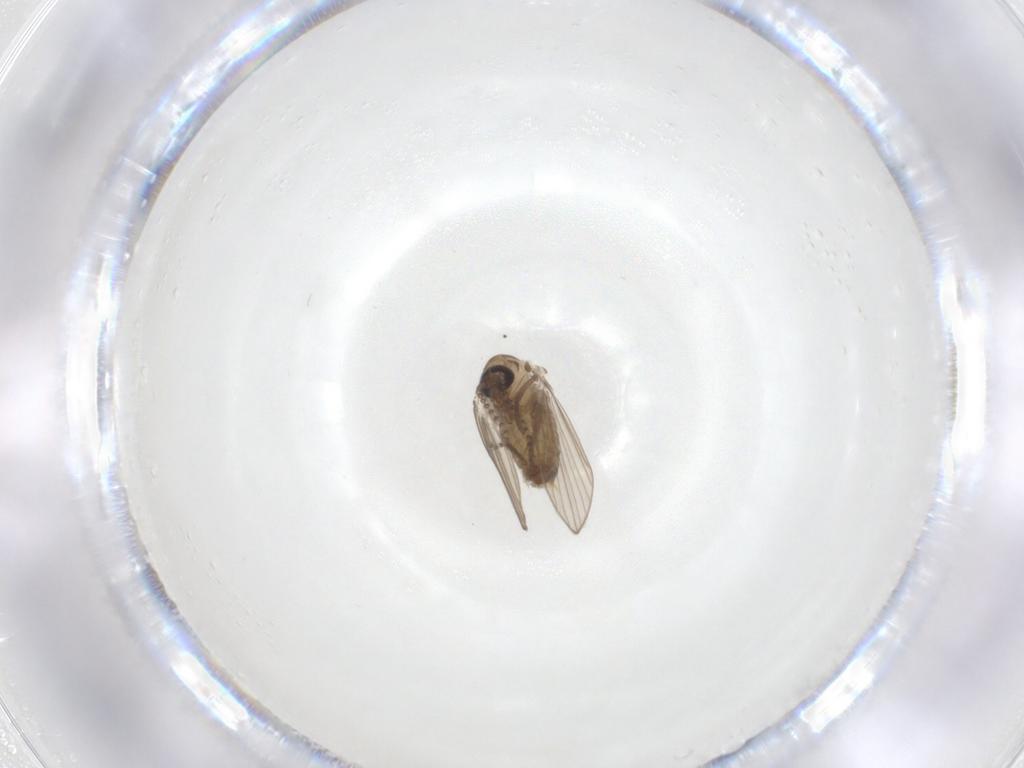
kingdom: Animalia
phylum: Arthropoda
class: Insecta
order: Diptera
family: Psychodidae
